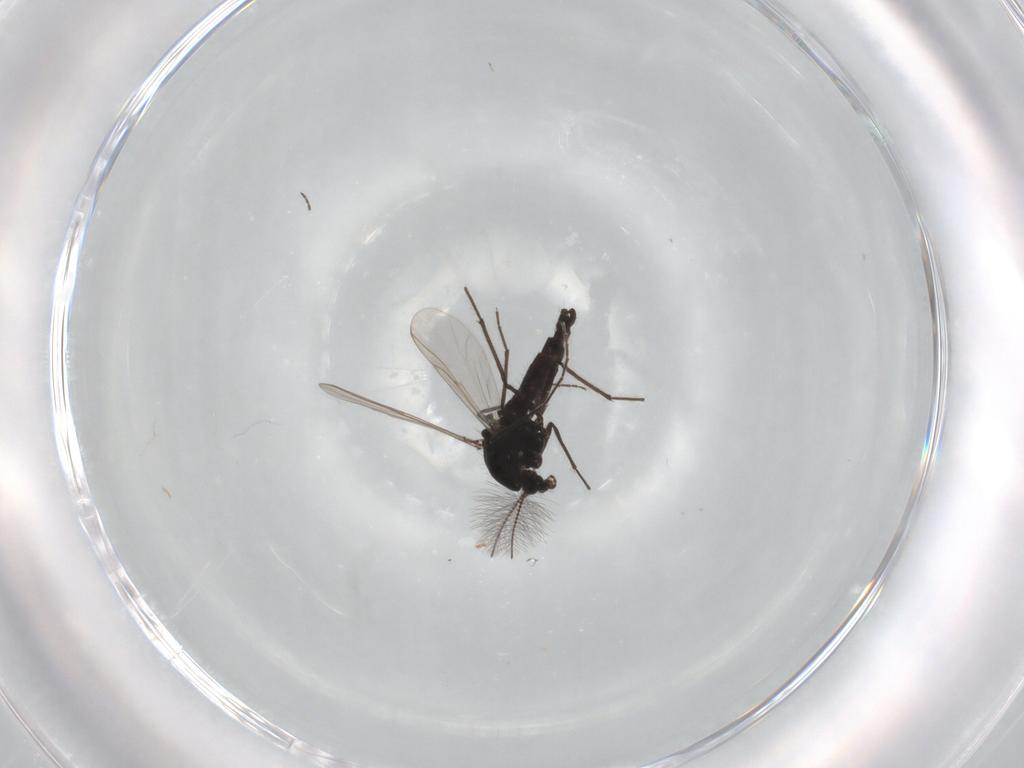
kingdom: Animalia
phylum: Arthropoda
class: Insecta
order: Diptera
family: Chironomidae
